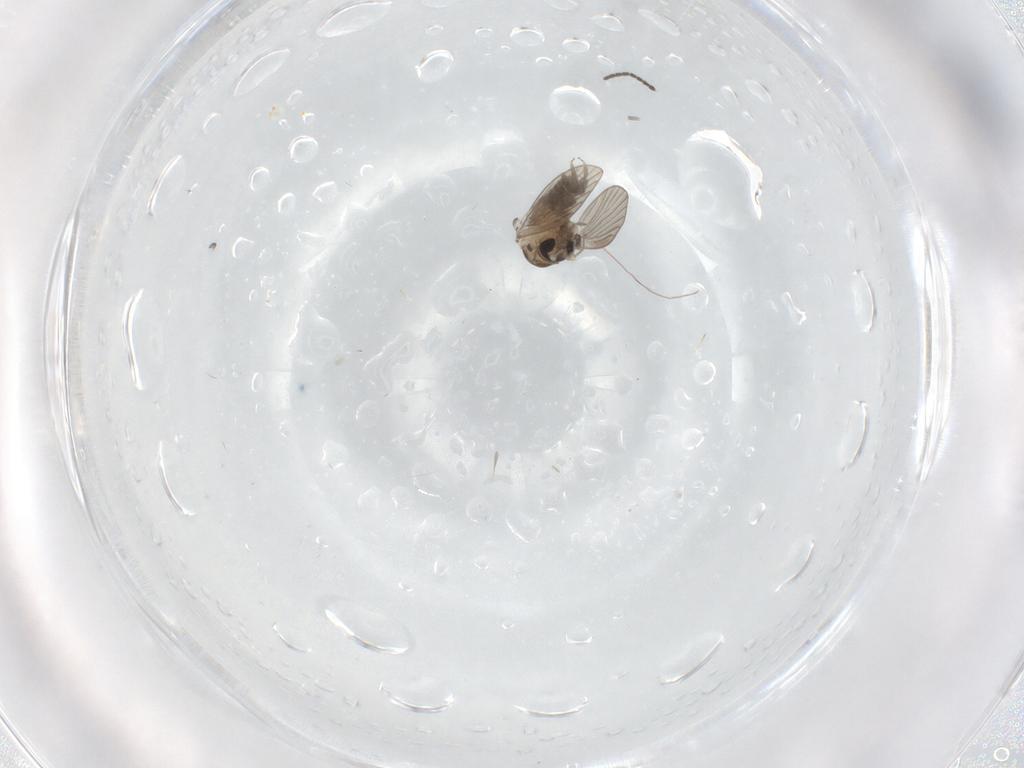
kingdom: Animalia
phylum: Arthropoda
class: Insecta
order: Diptera
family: Psychodidae
